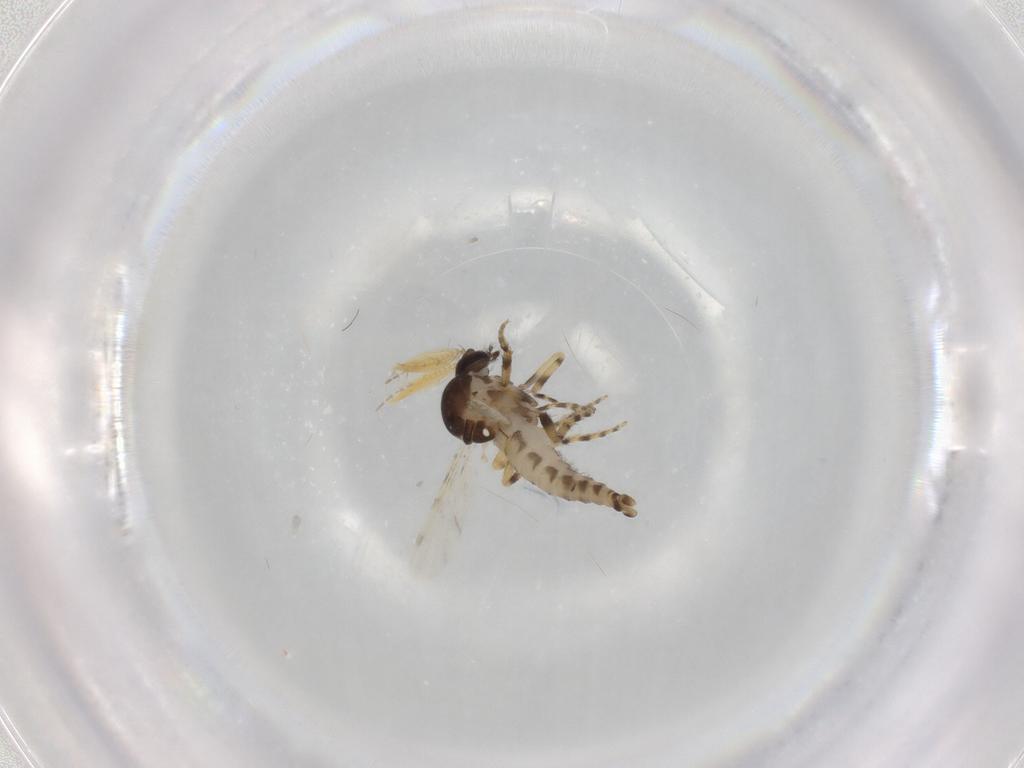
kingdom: Animalia
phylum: Arthropoda
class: Insecta
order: Diptera
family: Ceratopogonidae
